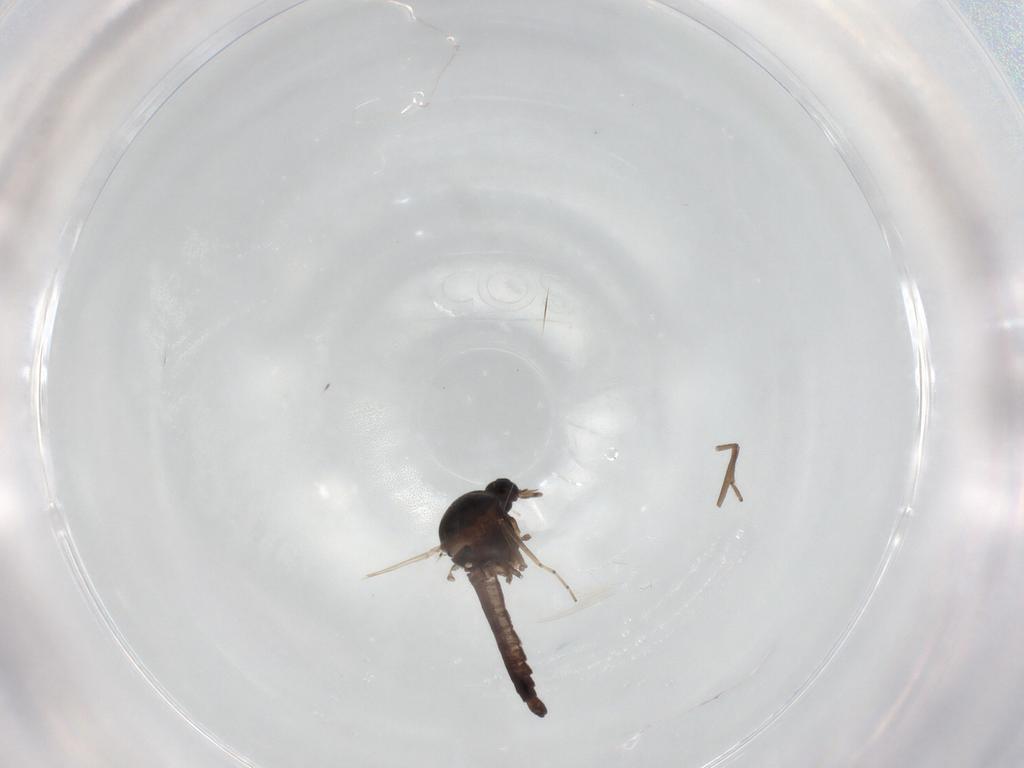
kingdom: Animalia
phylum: Arthropoda
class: Insecta
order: Diptera
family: Ceratopogonidae
